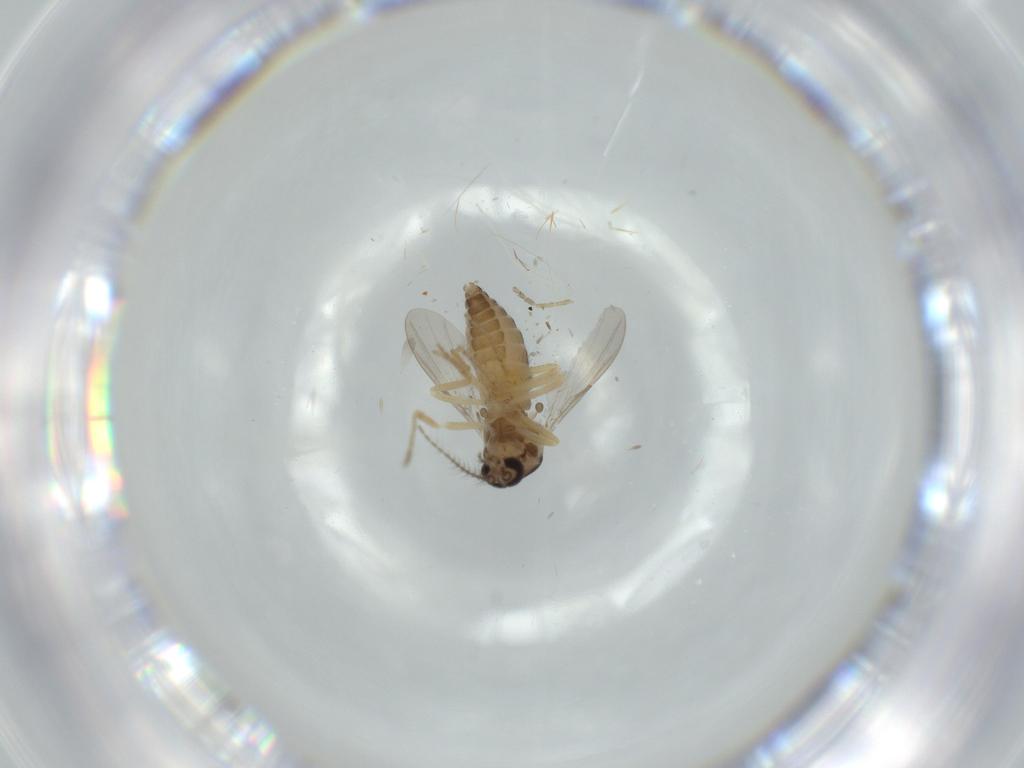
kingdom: Animalia
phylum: Arthropoda
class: Insecta
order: Diptera
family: Ceratopogonidae
